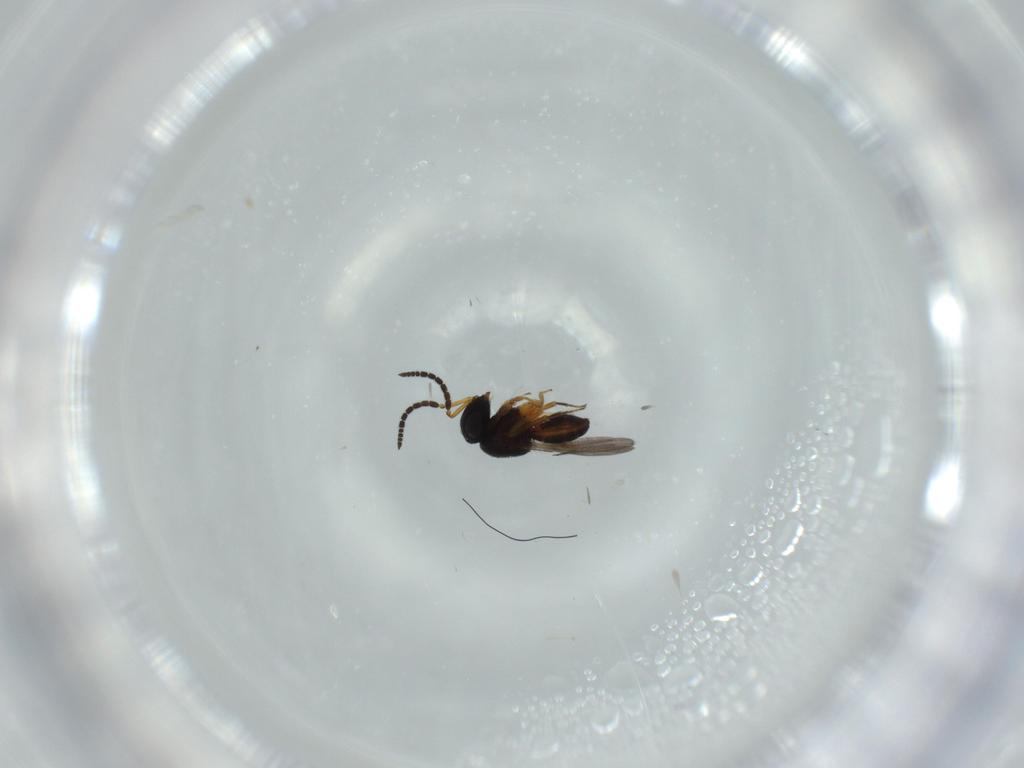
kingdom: Animalia
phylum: Arthropoda
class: Insecta
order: Hymenoptera
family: Scelionidae
